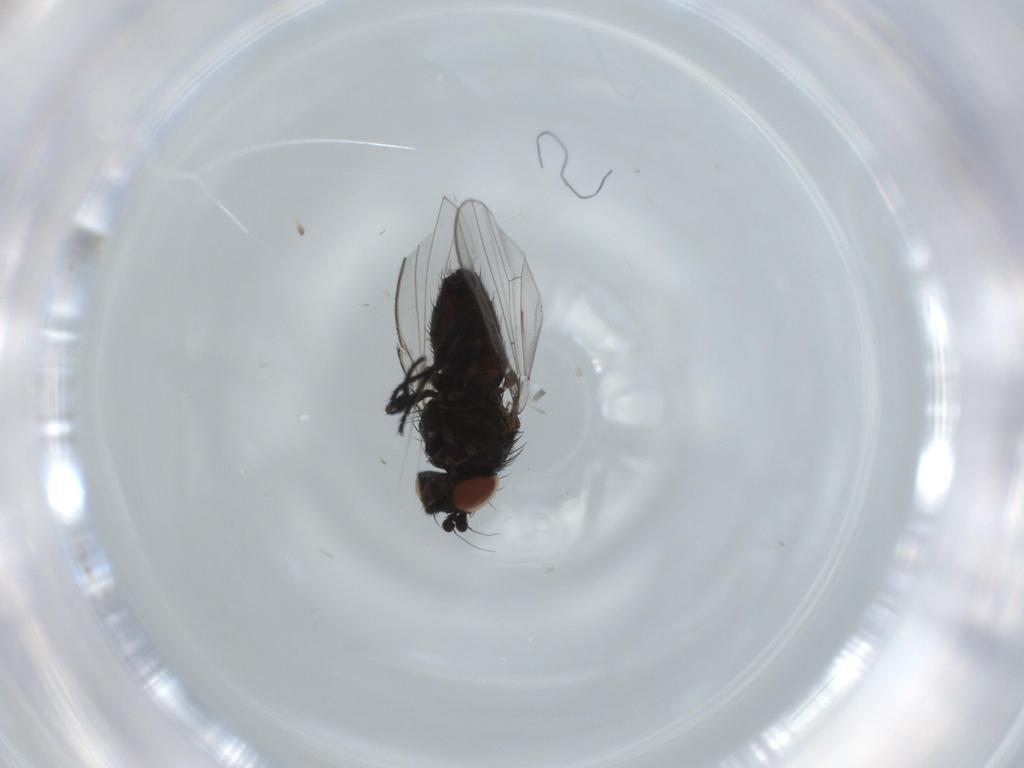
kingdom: Animalia
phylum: Arthropoda
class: Insecta
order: Diptera
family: Milichiidae
